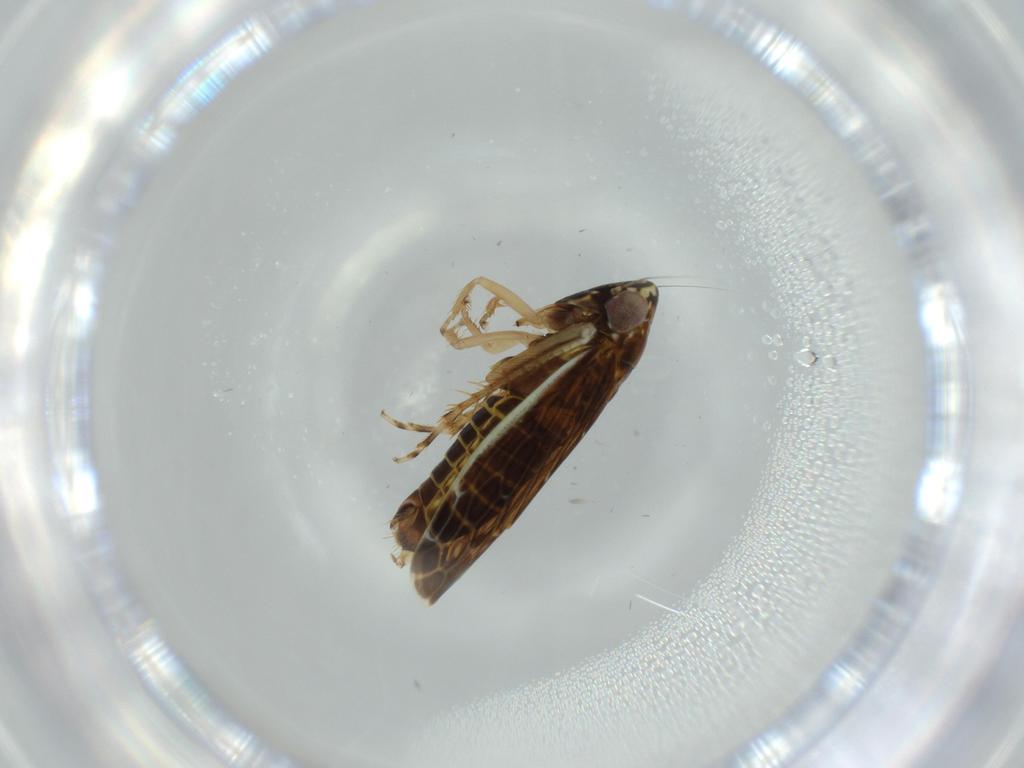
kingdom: Animalia
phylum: Arthropoda
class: Insecta
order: Hemiptera
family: Cicadellidae
